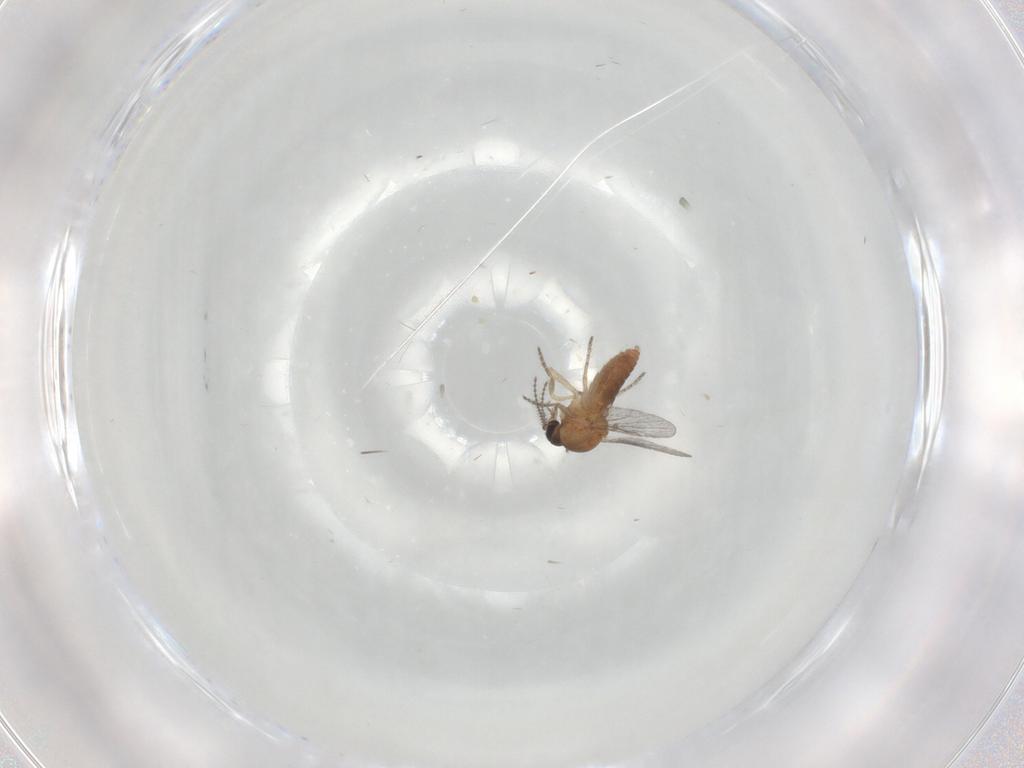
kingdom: Animalia
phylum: Arthropoda
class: Insecta
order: Diptera
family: Ceratopogonidae
